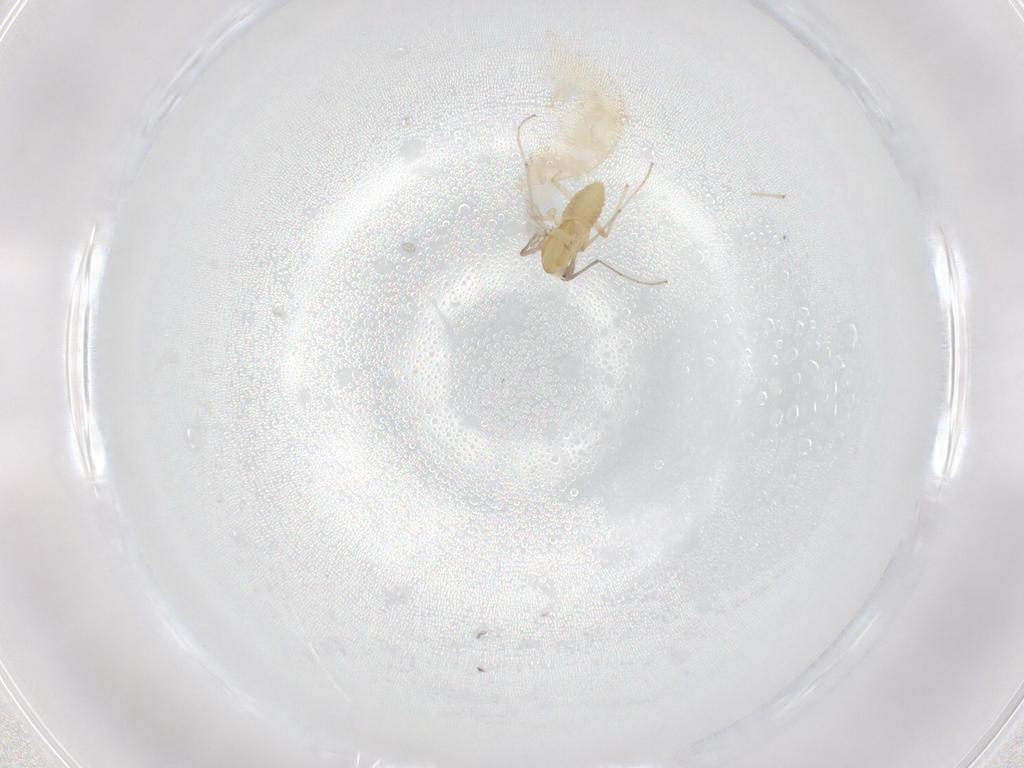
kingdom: Animalia
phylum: Arthropoda
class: Insecta
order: Diptera
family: Chironomidae
